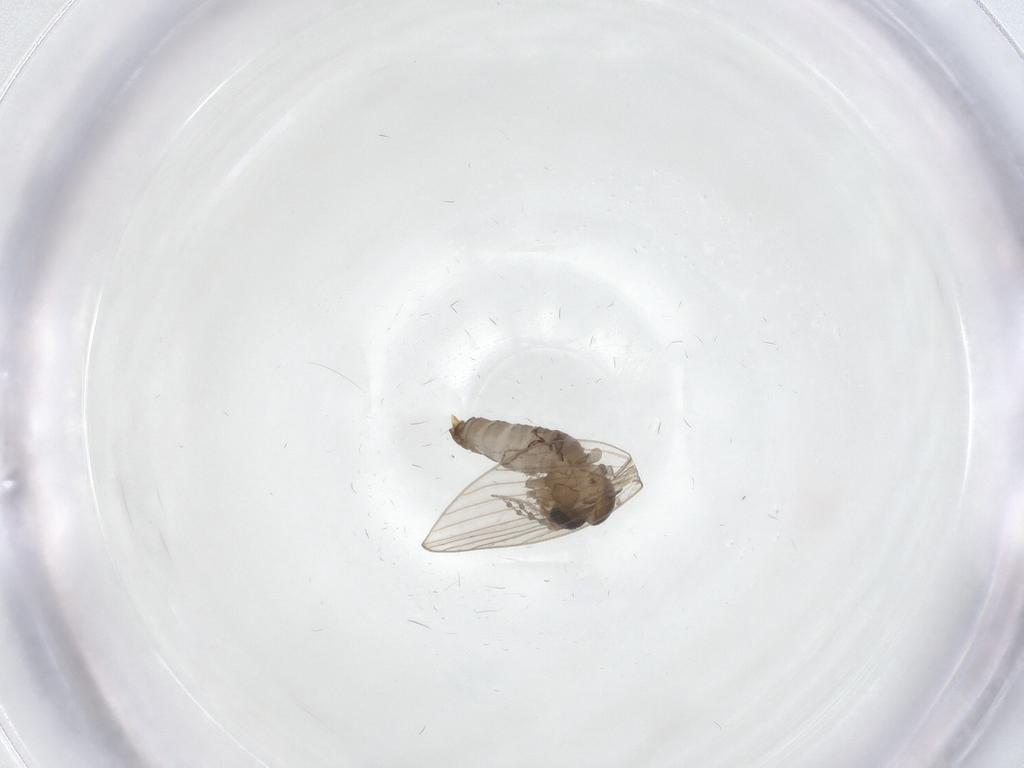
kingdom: Animalia
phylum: Arthropoda
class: Insecta
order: Diptera
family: Psychodidae
